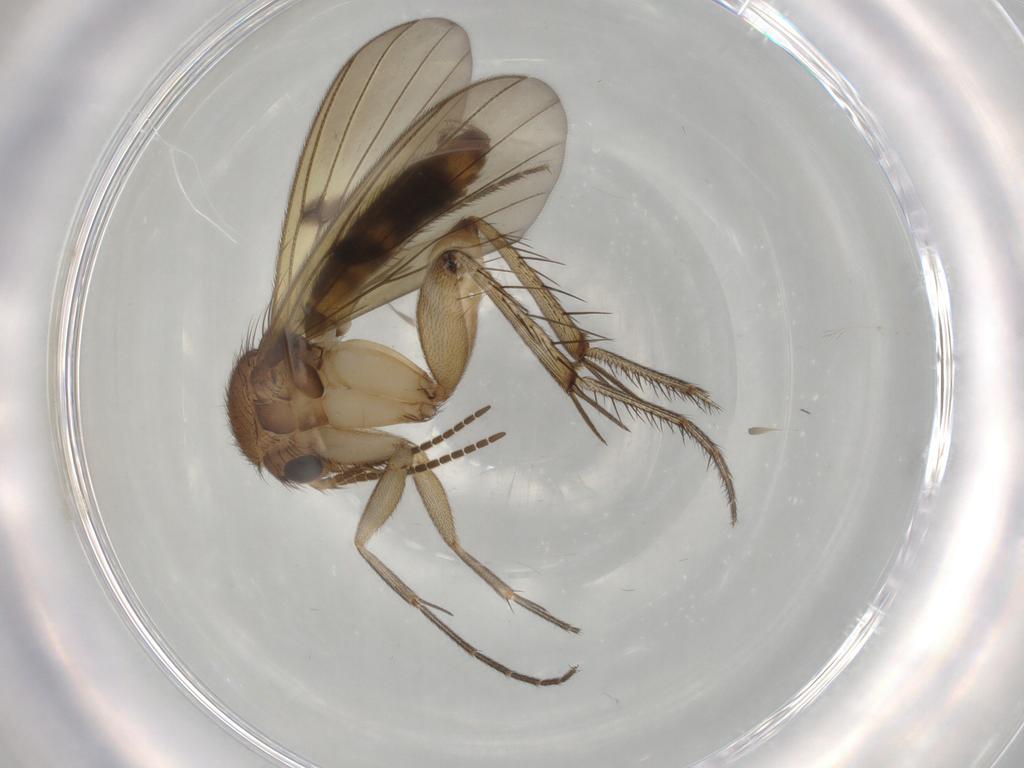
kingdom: Animalia
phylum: Arthropoda
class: Insecta
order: Diptera
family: Mycetophilidae
